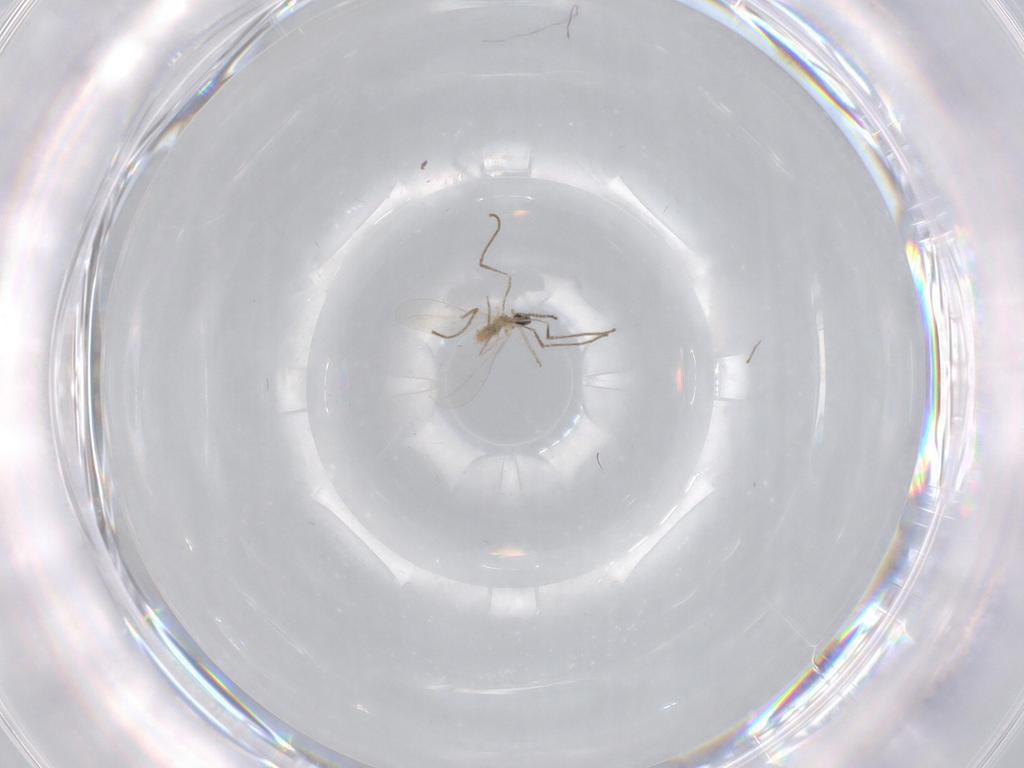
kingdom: Animalia
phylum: Arthropoda
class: Insecta
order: Diptera
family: Cecidomyiidae
